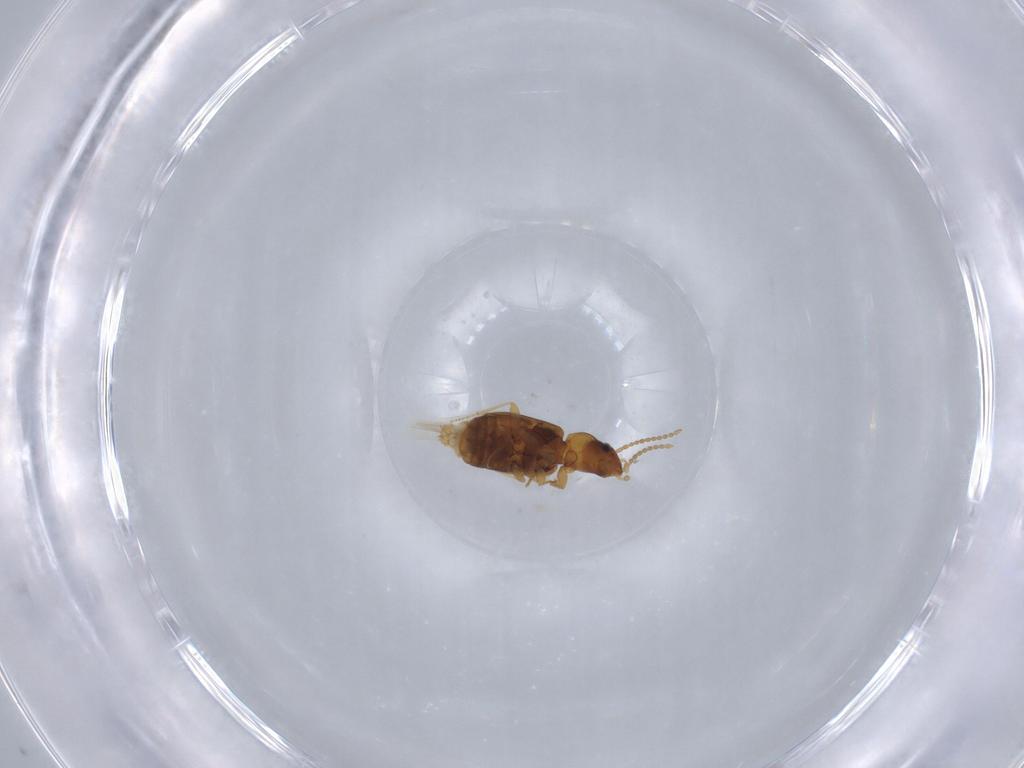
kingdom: Animalia
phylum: Arthropoda
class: Insecta
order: Coleoptera
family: Carabidae
